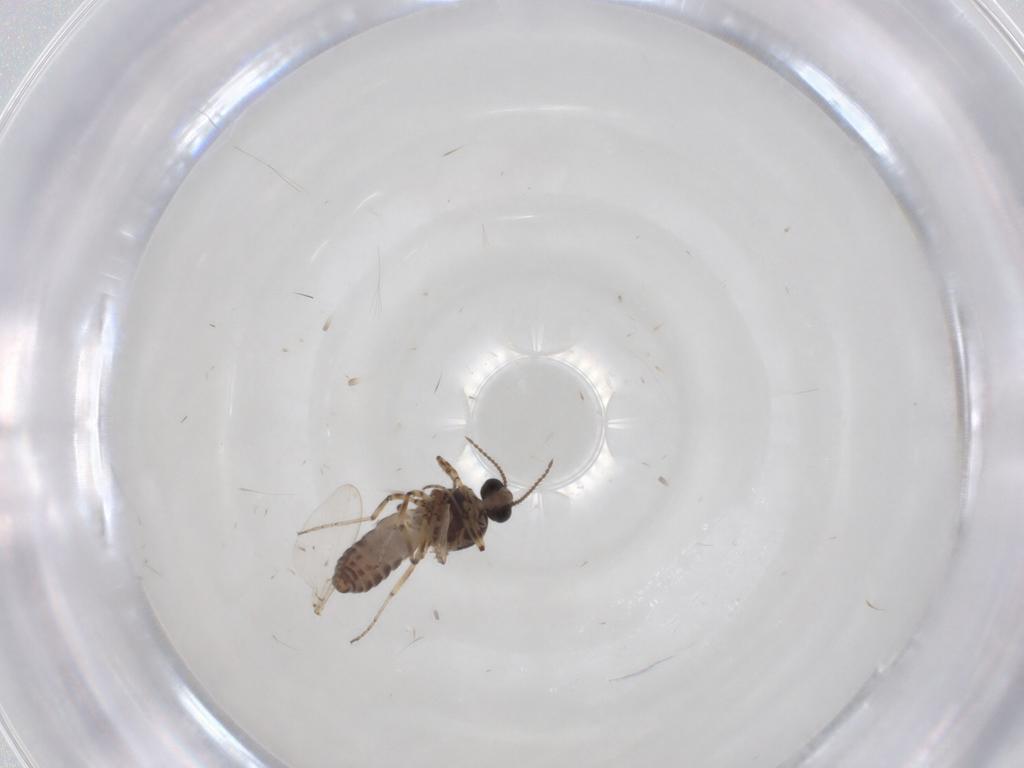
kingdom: Animalia
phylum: Arthropoda
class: Insecta
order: Diptera
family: Ceratopogonidae
